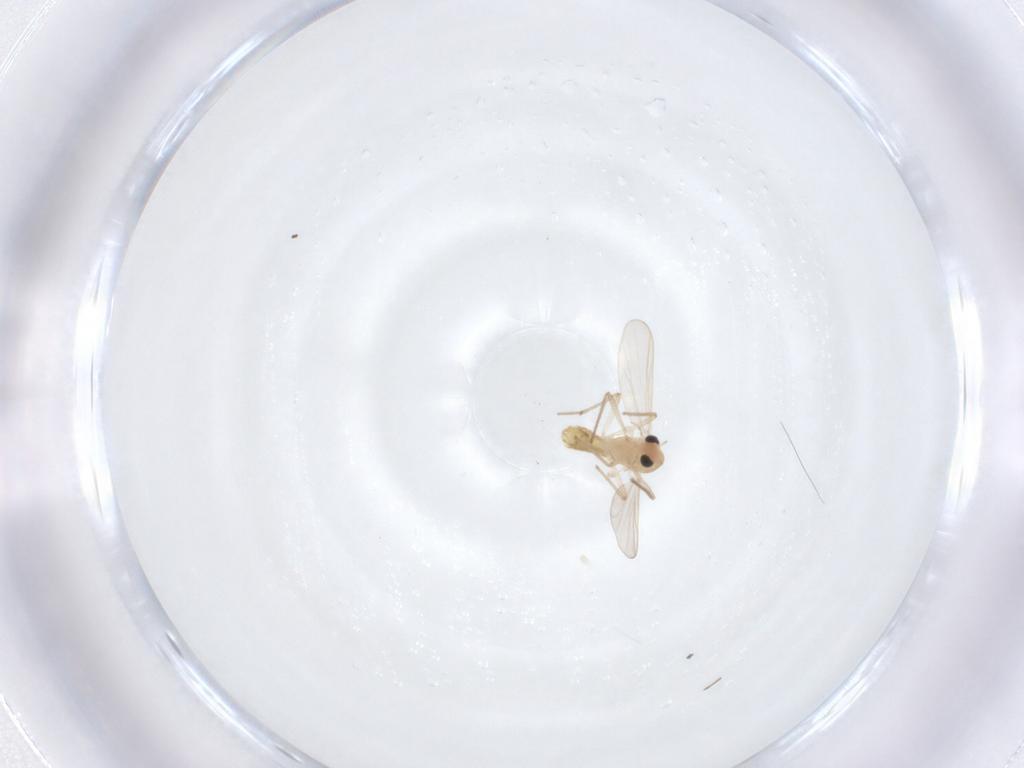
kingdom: Animalia
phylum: Arthropoda
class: Insecta
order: Diptera
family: Chironomidae
